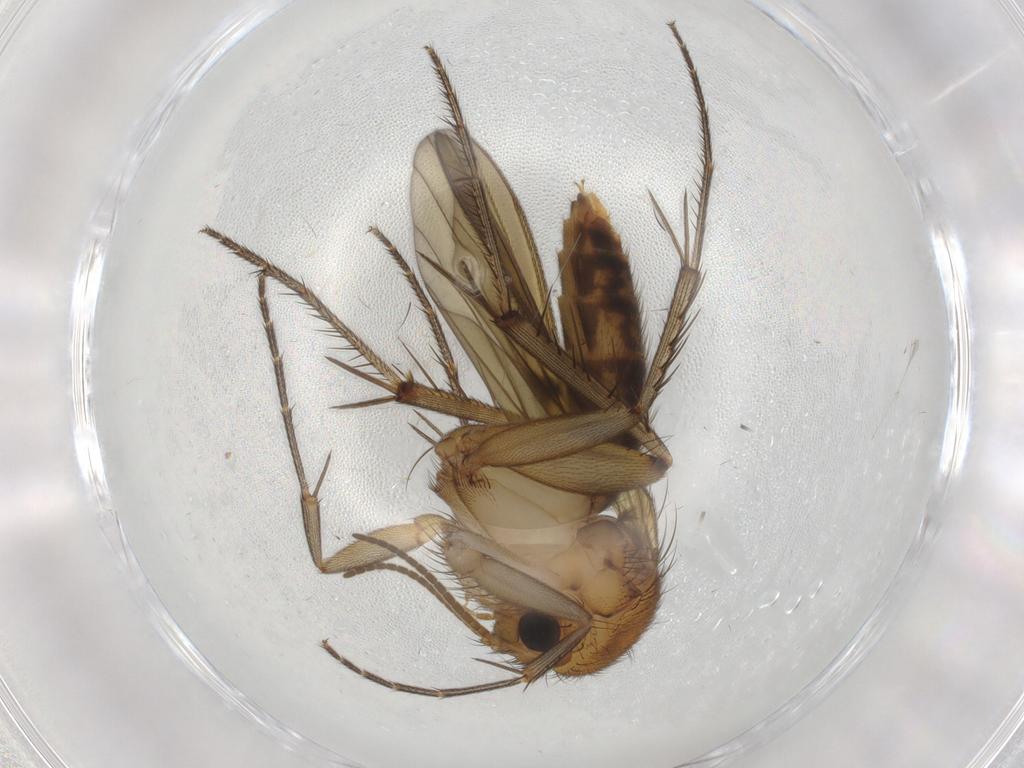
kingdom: Animalia
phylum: Arthropoda
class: Insecta
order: Diptera
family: Mycetophilidae
